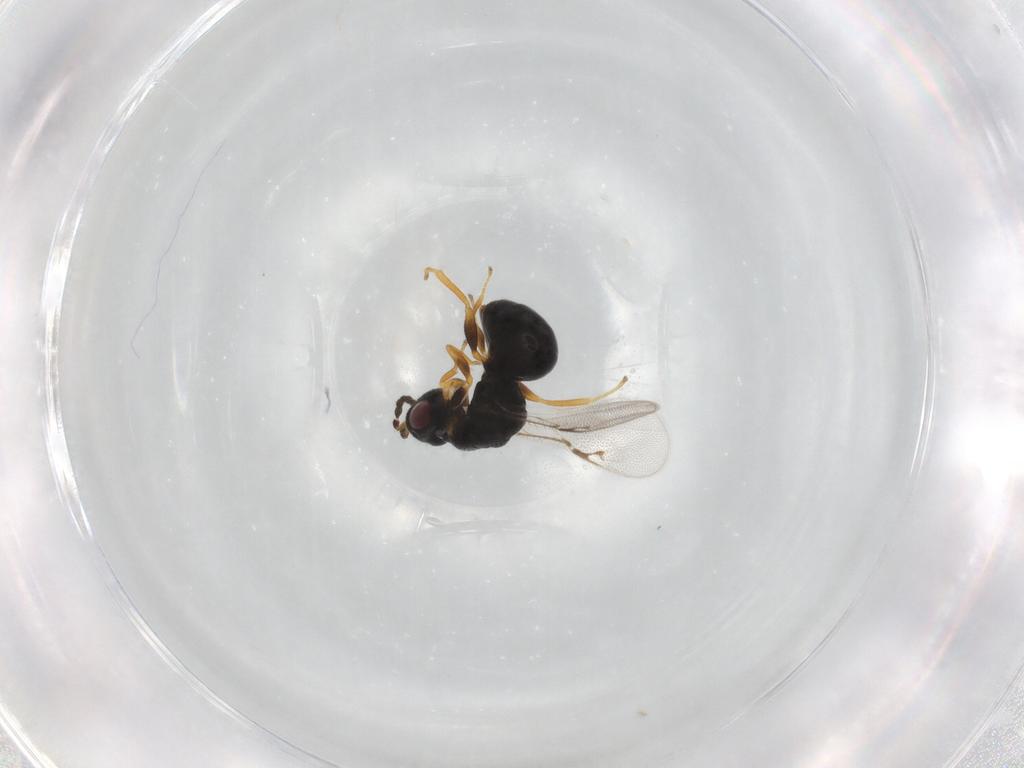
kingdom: Animalia
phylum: Arthropoda
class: Insecta
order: Hymenoptera
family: Eurytomidae
